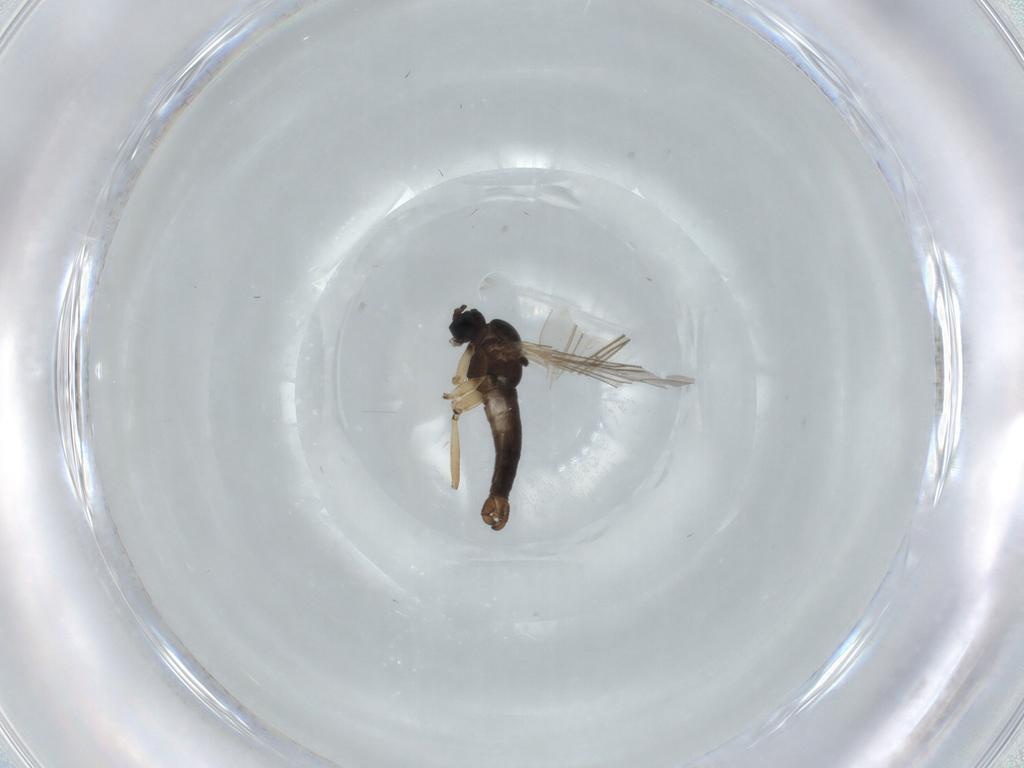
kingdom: Animalia
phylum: Arthropoda
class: Insecta
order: Diptera
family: Sciaridae
